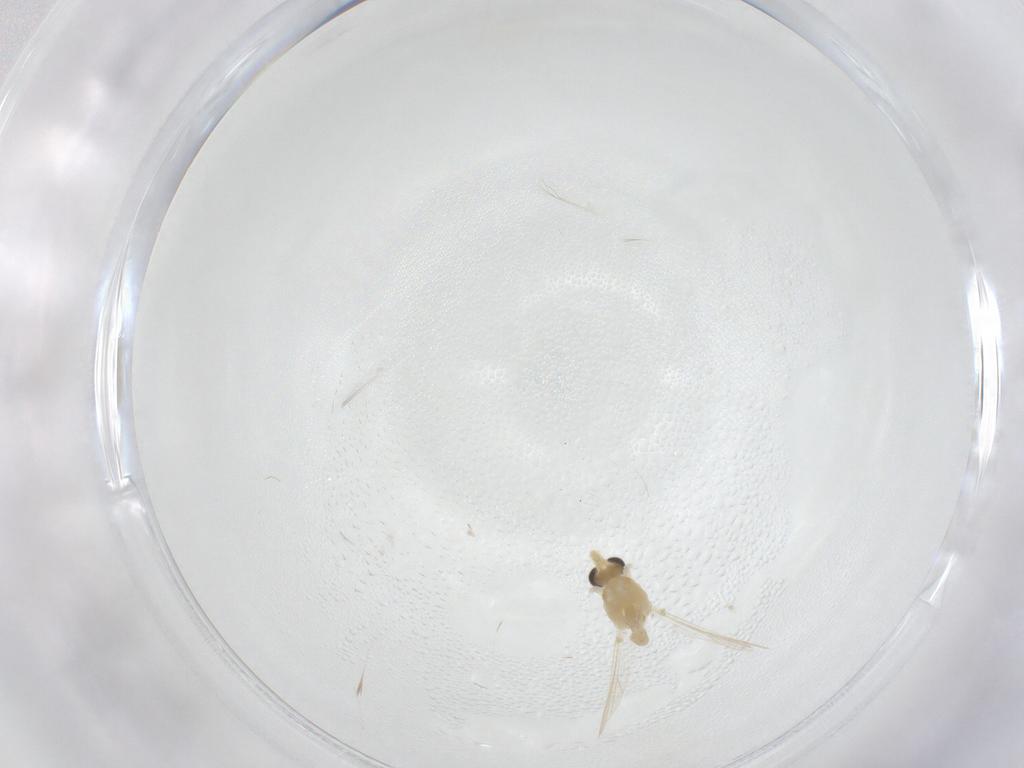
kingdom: Animalia
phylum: Arthropoda
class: Insecta
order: Diptera
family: Chironomidae
